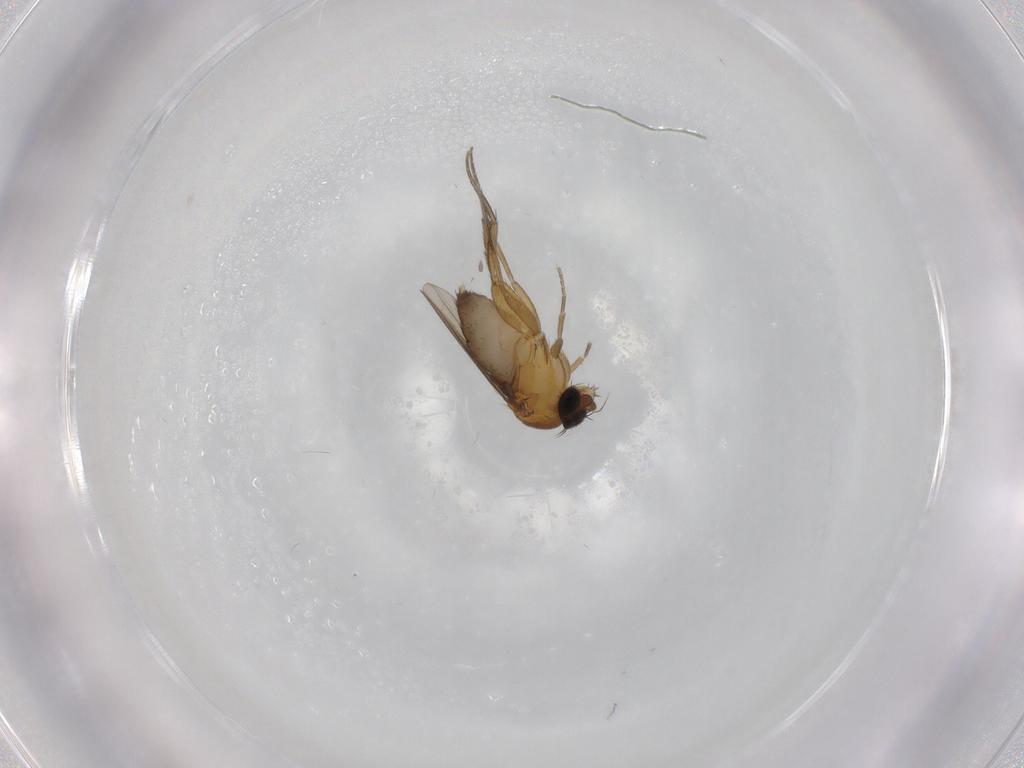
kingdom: Animalia
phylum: Arthropoda
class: Insecta
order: Diptera
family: Phoridae
